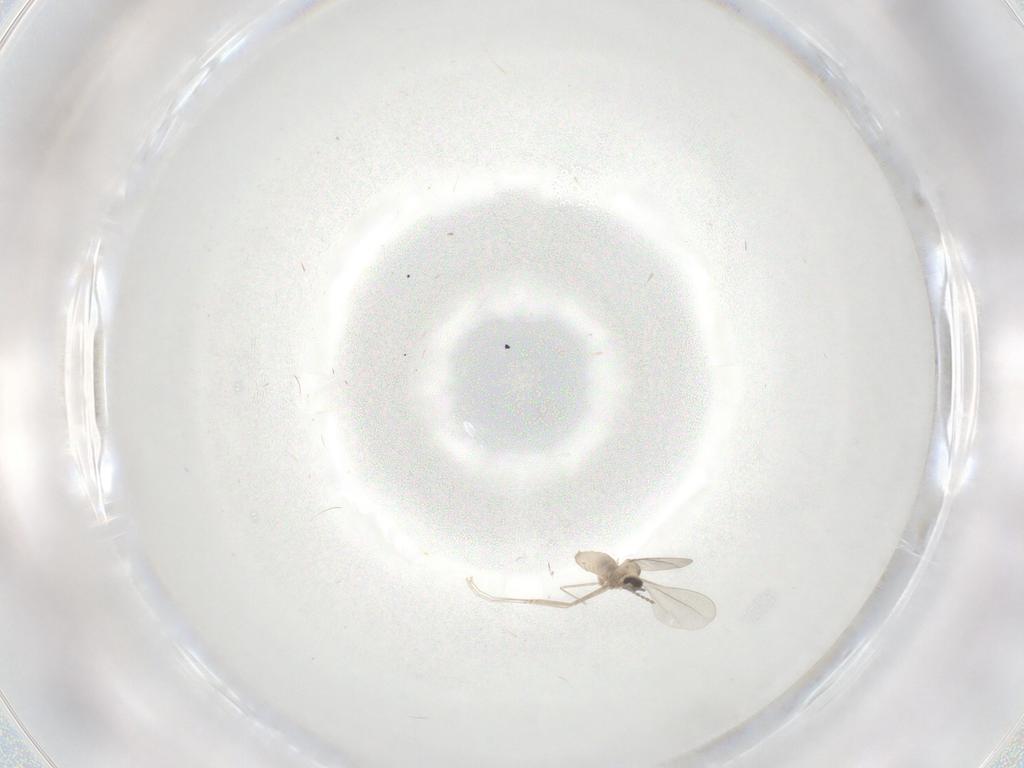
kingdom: Animalia
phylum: Arthropoda
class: Insecta
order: Diptera
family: Cecidomyiidae
